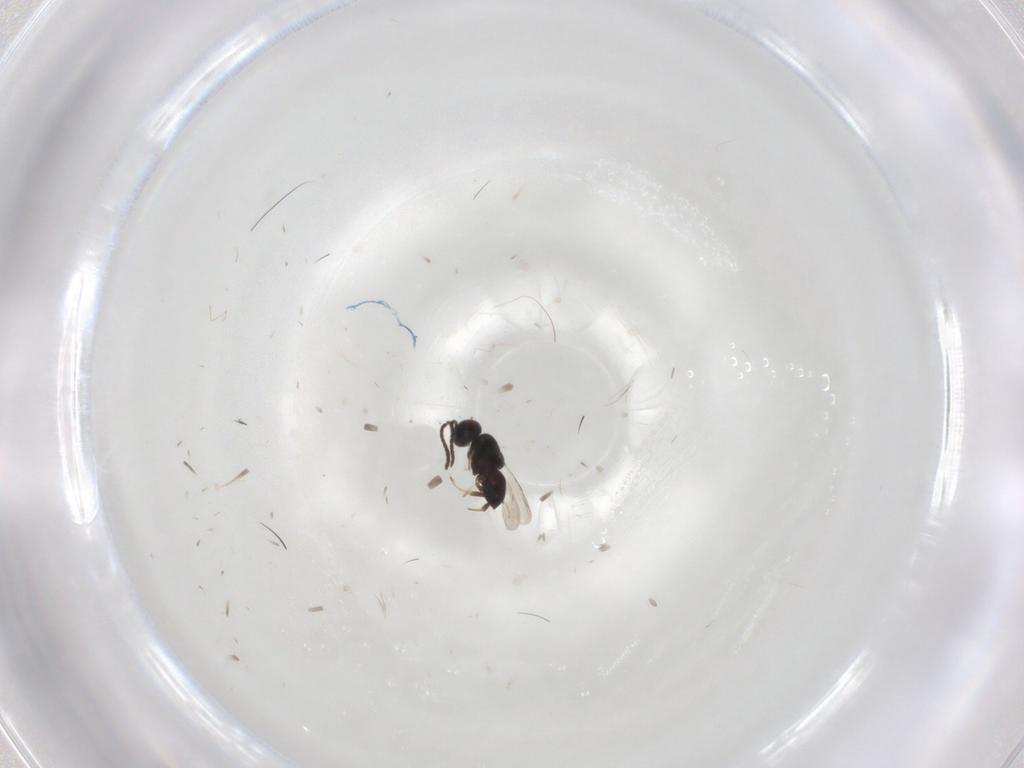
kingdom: Animalia
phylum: Arthropoda
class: Insecta
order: Hymenoptera
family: Ceraphronidae
